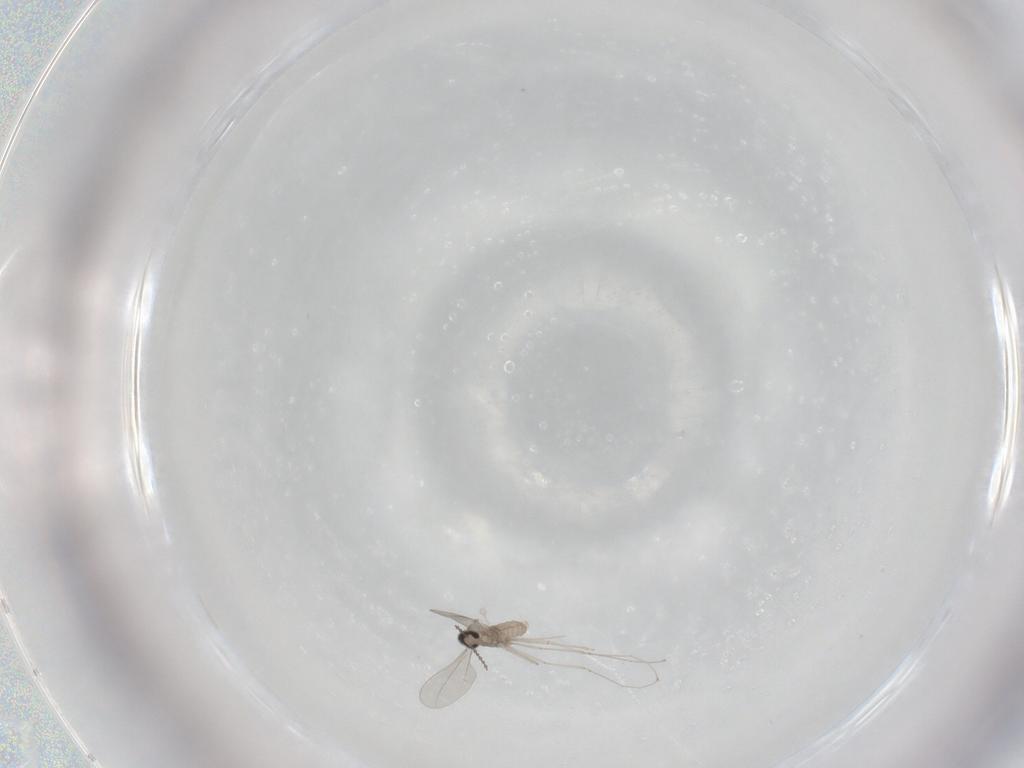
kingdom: Animalia
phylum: Arthropoda
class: Insecta
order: Diptera
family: Cecidomyiidae
